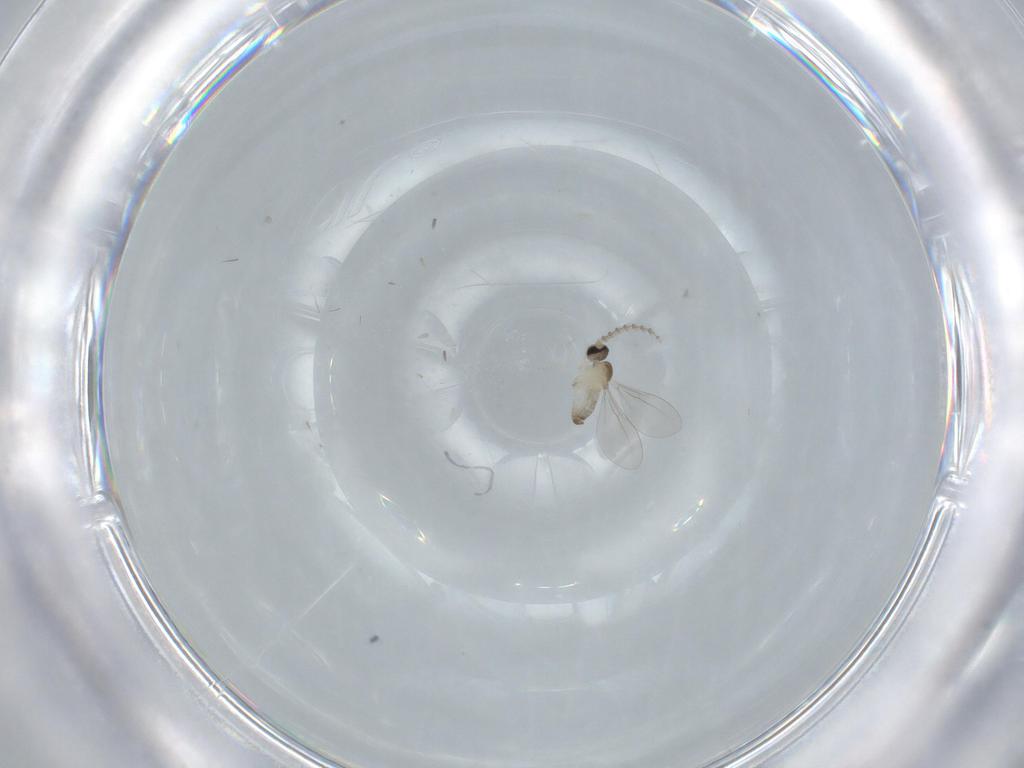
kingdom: Animalia
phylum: Arthropoda
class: Insecta
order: Diptera
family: Cecidomyiidae
